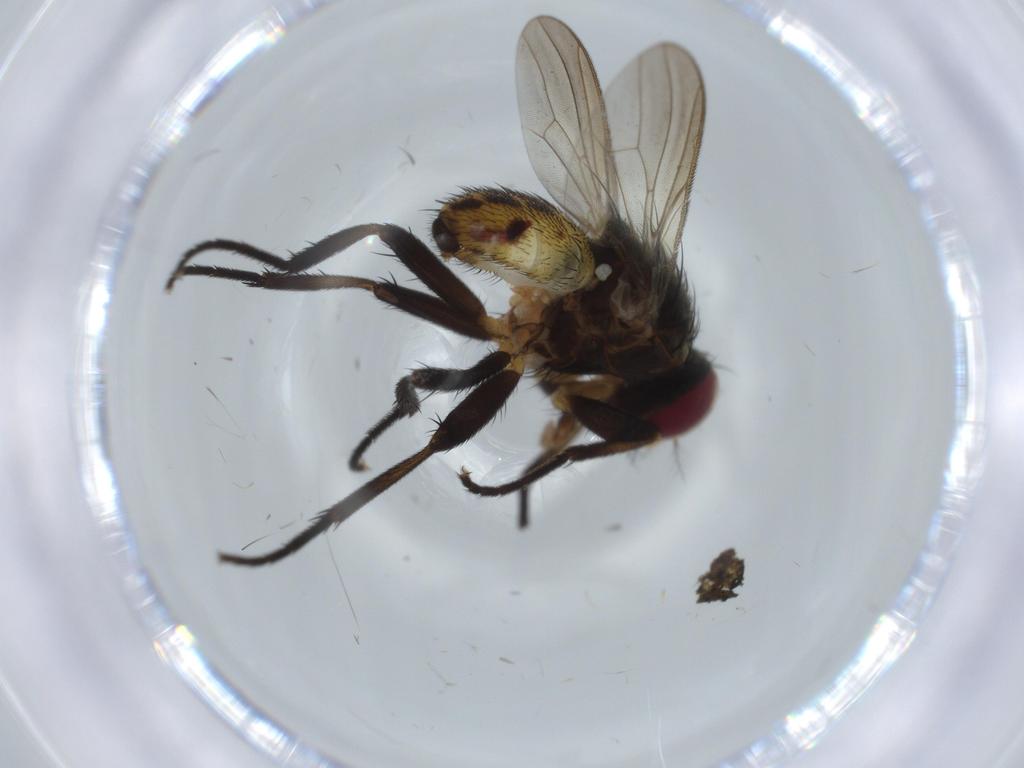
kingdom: Animalia
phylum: Arthropoda
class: Insecta
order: Diptera
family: Anthomyiidae
